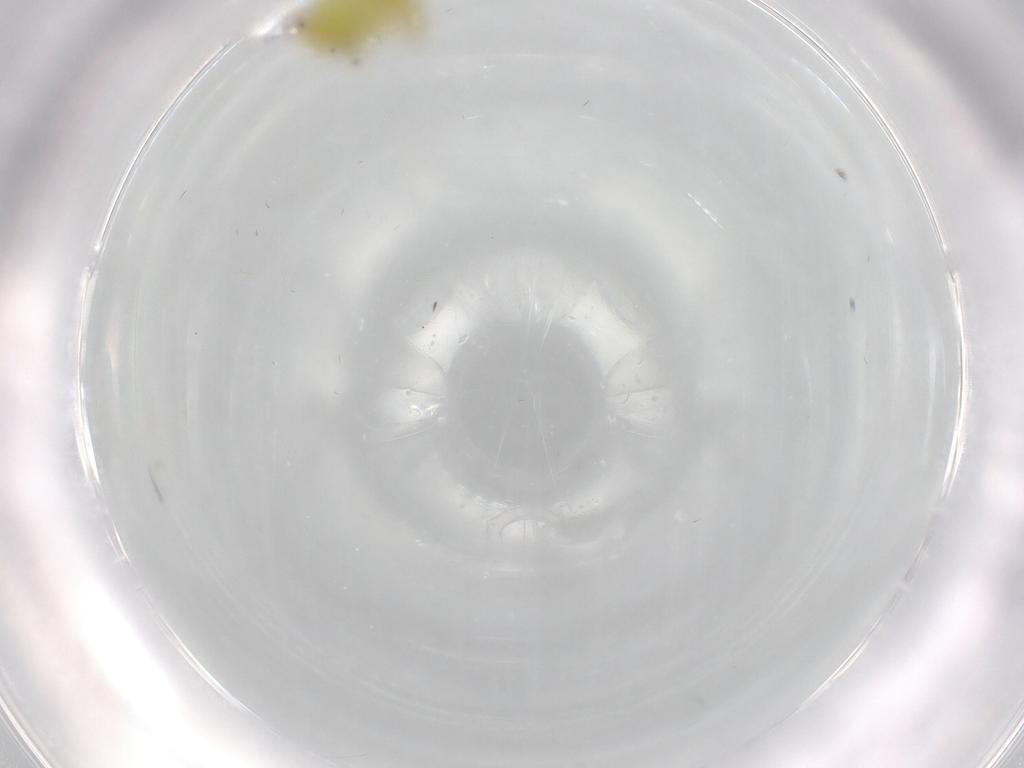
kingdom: Animalia
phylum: Arthropoda
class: Insecta
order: Hemiptera
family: Miridae
